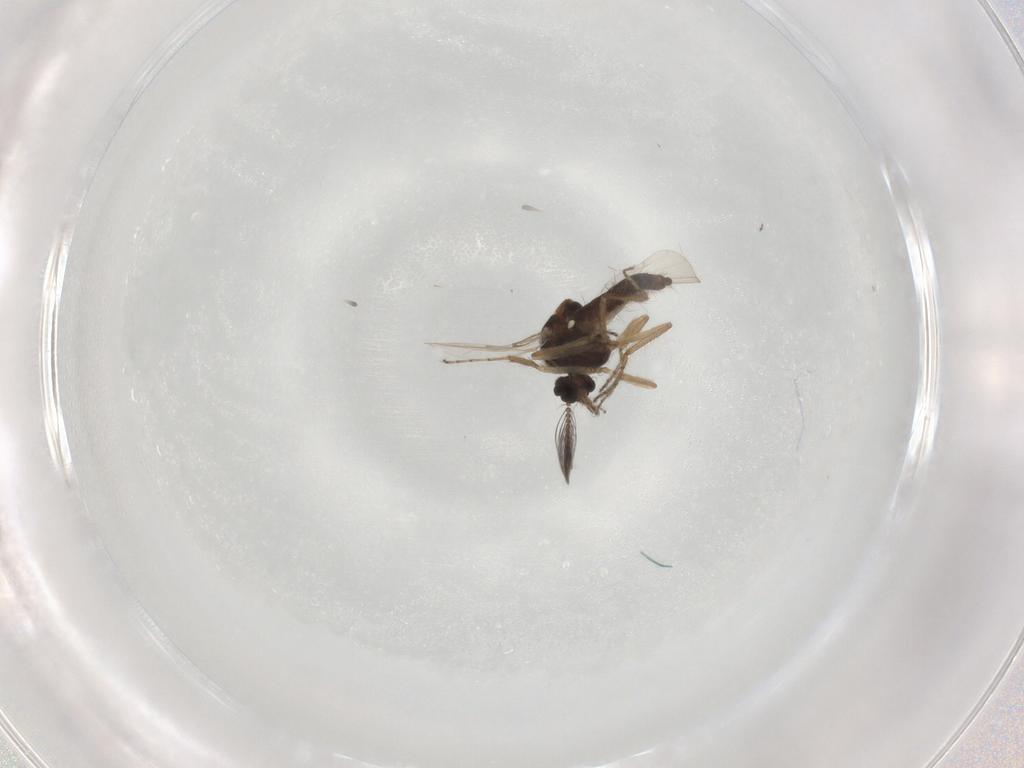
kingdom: Animalia
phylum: Arthropoda
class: Insecta
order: Diptera
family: Ceratopogonidae
